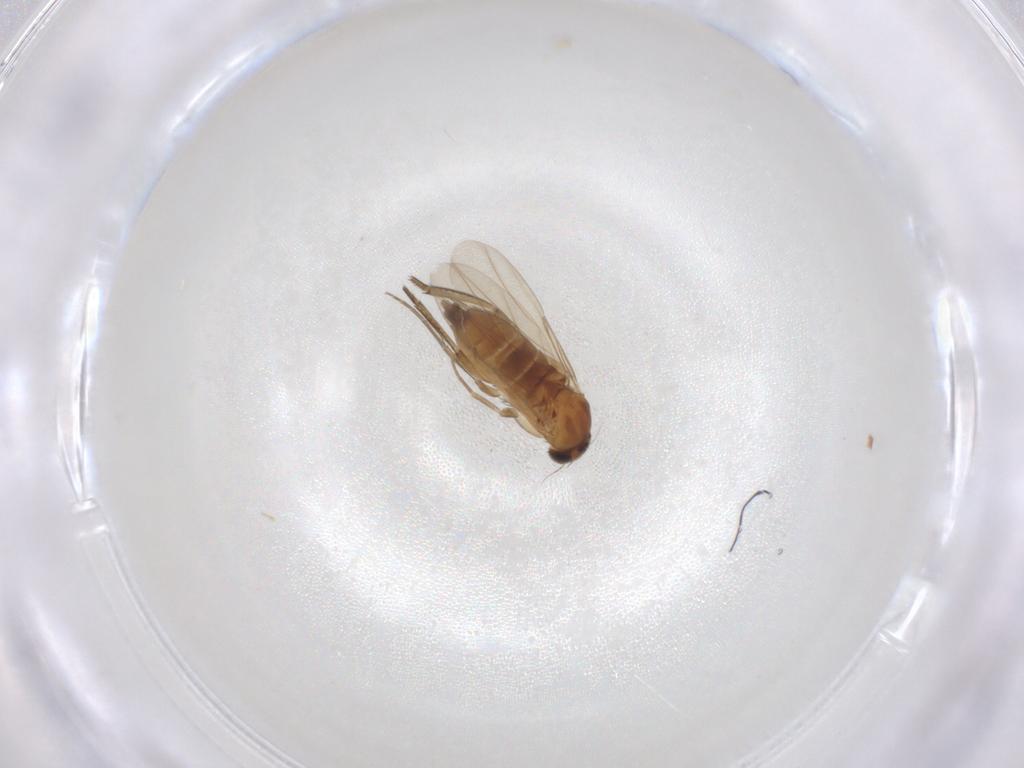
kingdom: Animalia
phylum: Arthropoda
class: Insecta
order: Diptera
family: Phoridae
